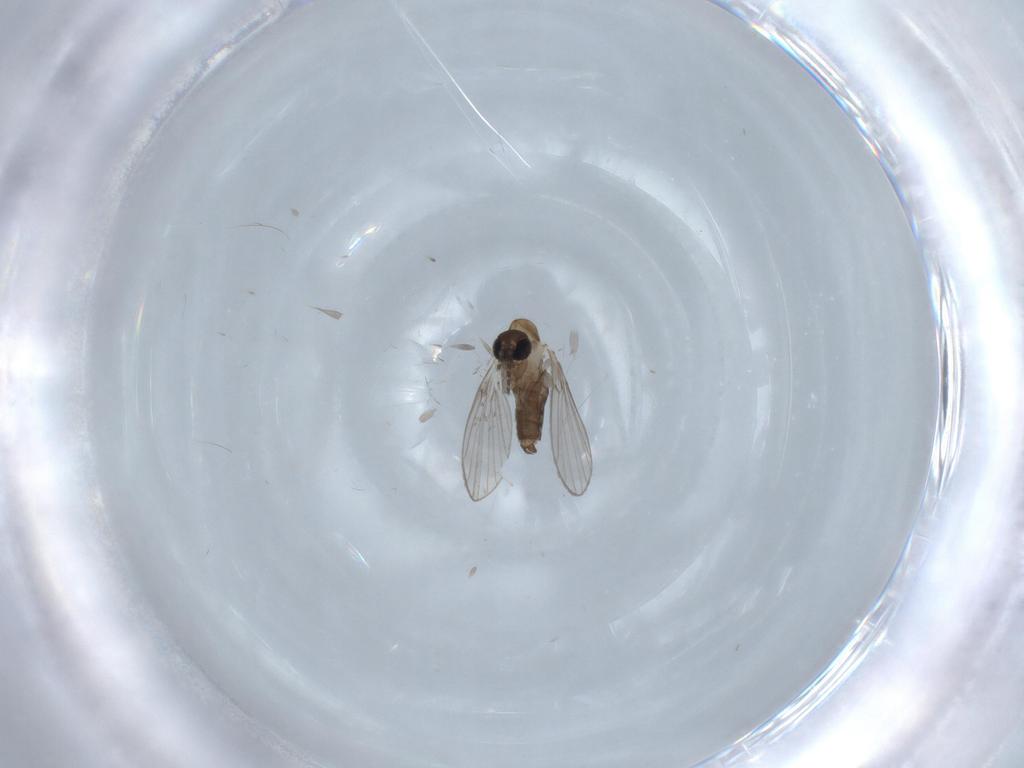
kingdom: Animalia
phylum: Arthropoda
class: Insecta
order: Diptera
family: Psychodidae
